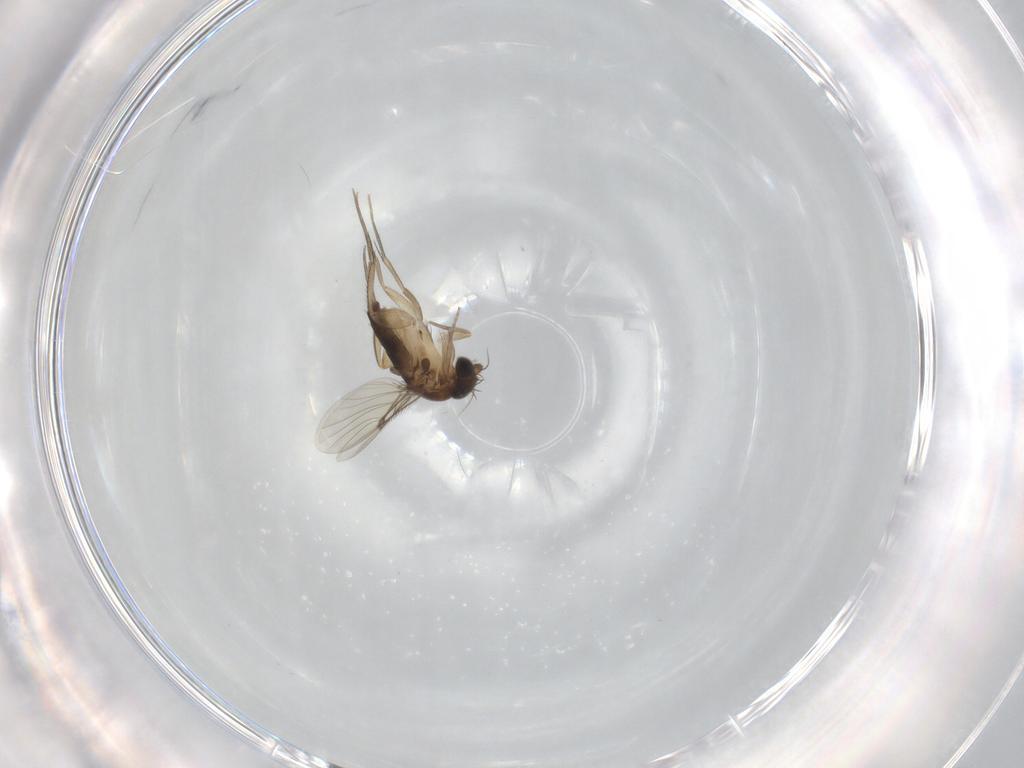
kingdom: Animalia
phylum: Arthropoda
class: Insecta
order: Diptera
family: Phoridae
